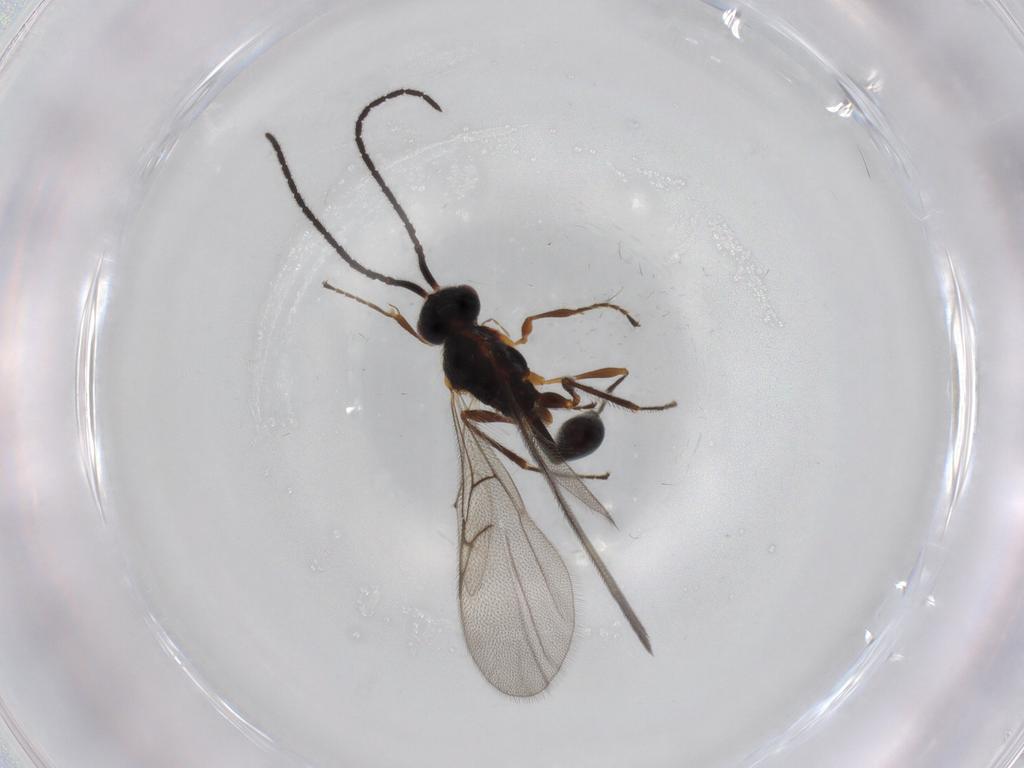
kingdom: Animalia
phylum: Arthropoda
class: Insecta
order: Hymenoptera
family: Diapriidae
